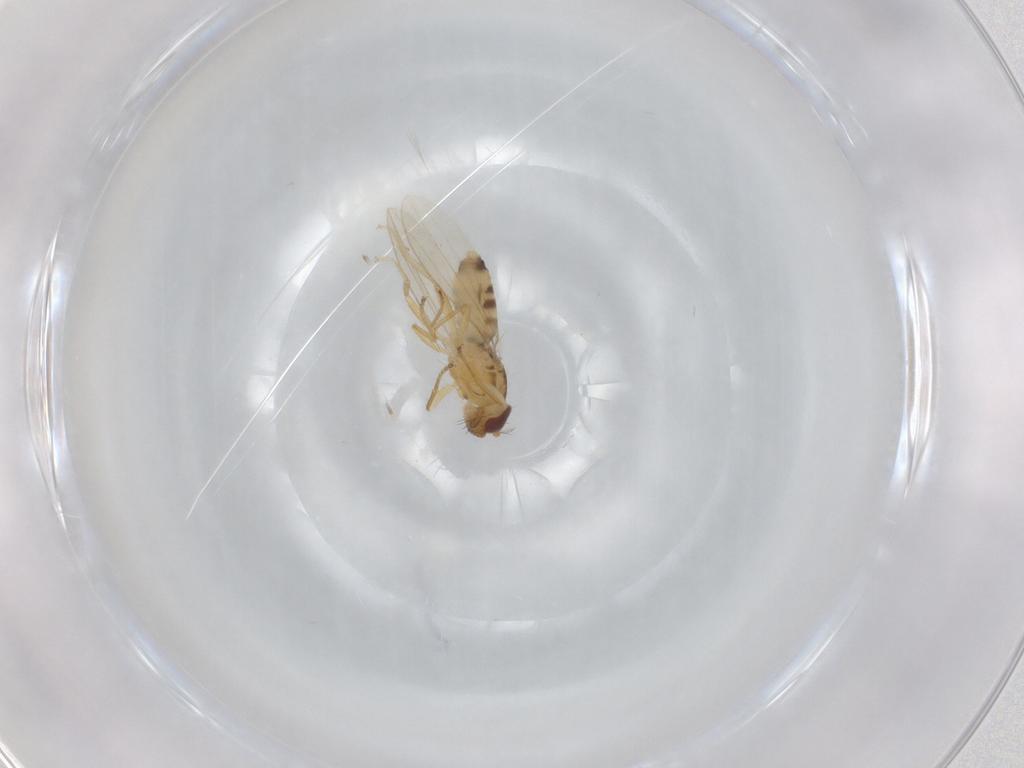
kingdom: Animalia
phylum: Arthropoda
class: Insecta
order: Diptera
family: Periscelididae
